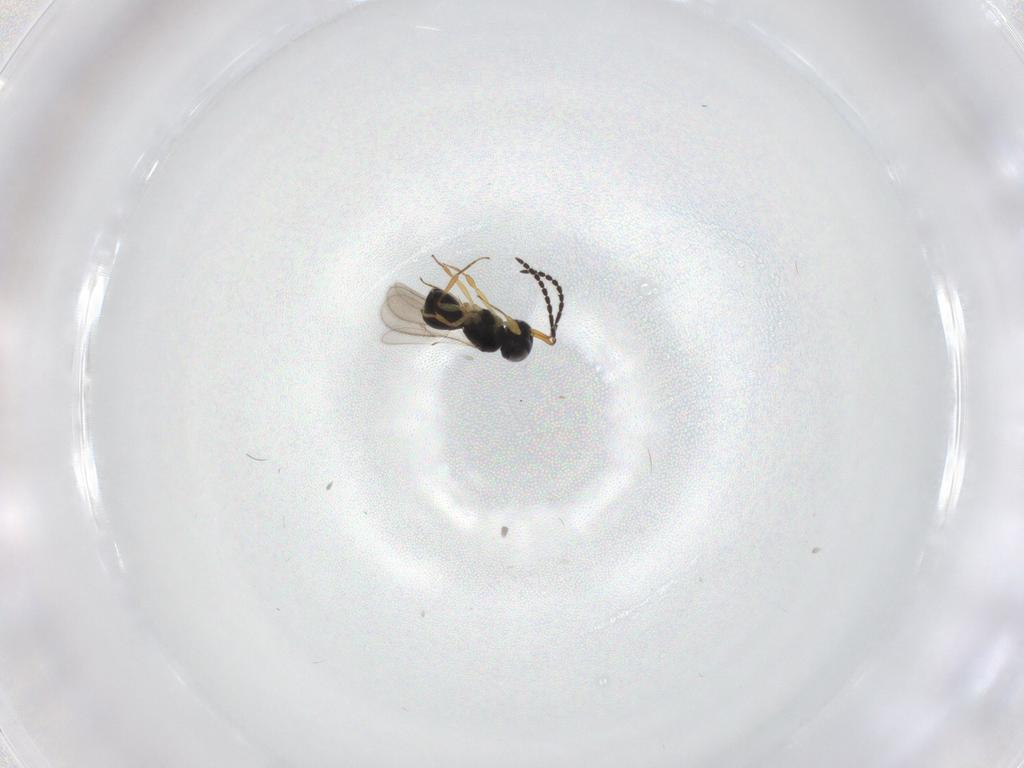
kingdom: Animalia
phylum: Arthropoda
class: Insecta
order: Hymenoptera
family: Scelionidae
